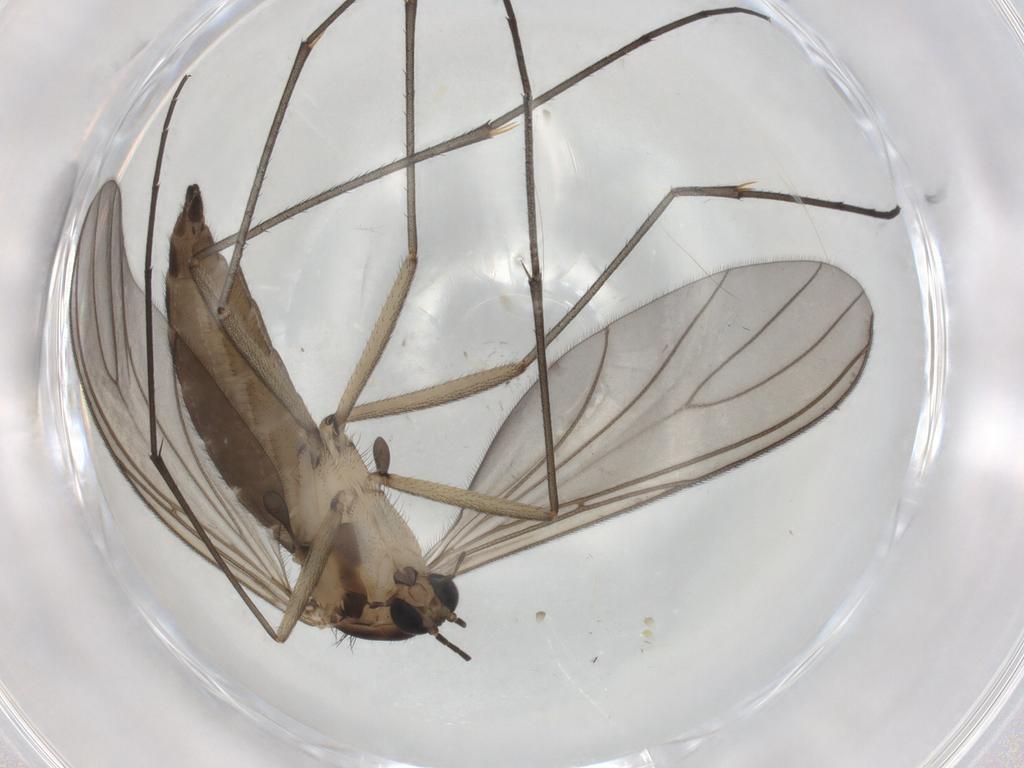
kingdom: Animalia
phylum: Arthropoda
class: Insecta
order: Diptera
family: Sciaridae
